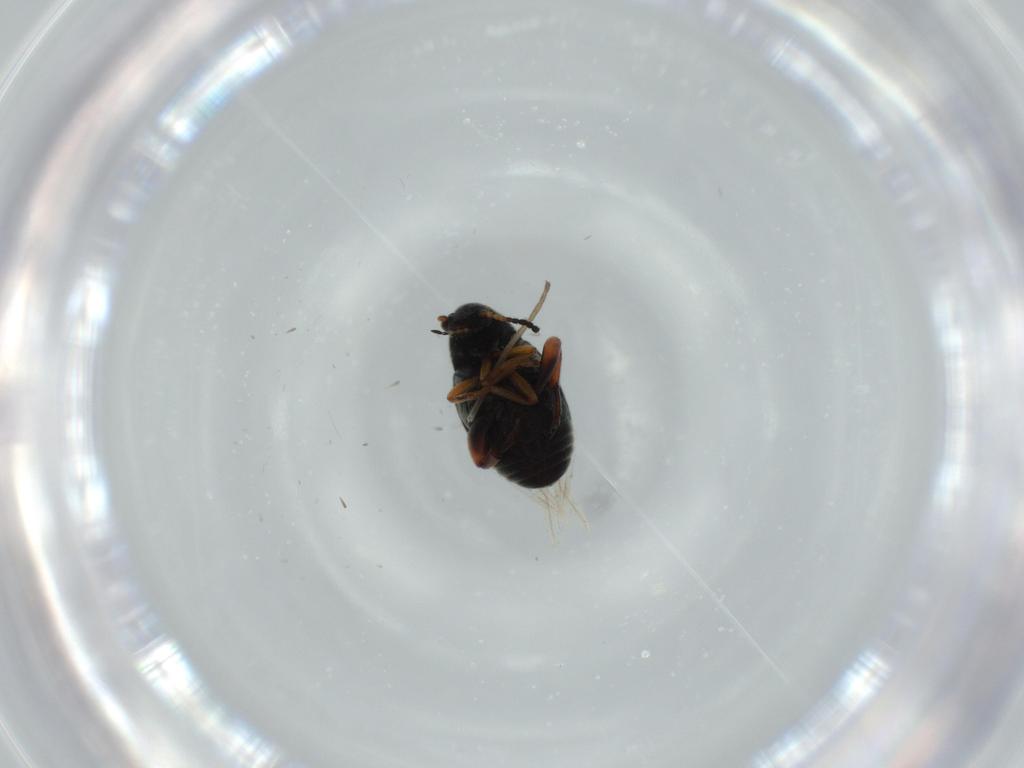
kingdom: Animalia
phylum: Arthropoda
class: Insecta
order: Coleoptera
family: Chrysomelidae
